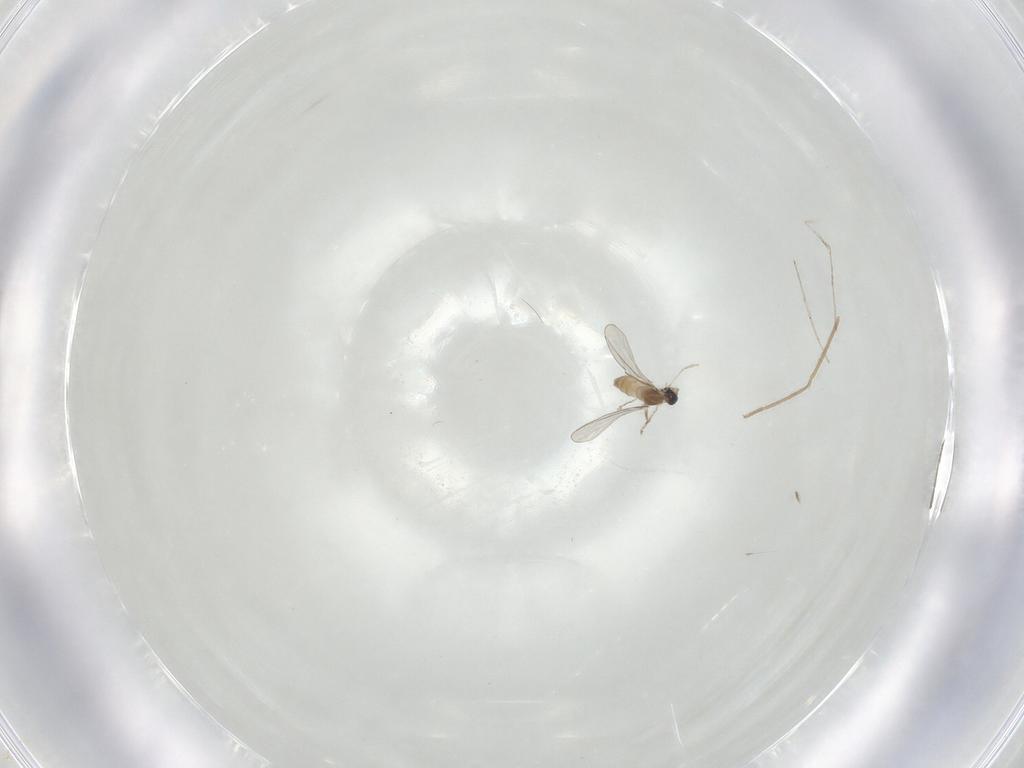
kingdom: Animalia
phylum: Arthropoda
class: Insecta
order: Diptera
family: Cecidomyiidae
